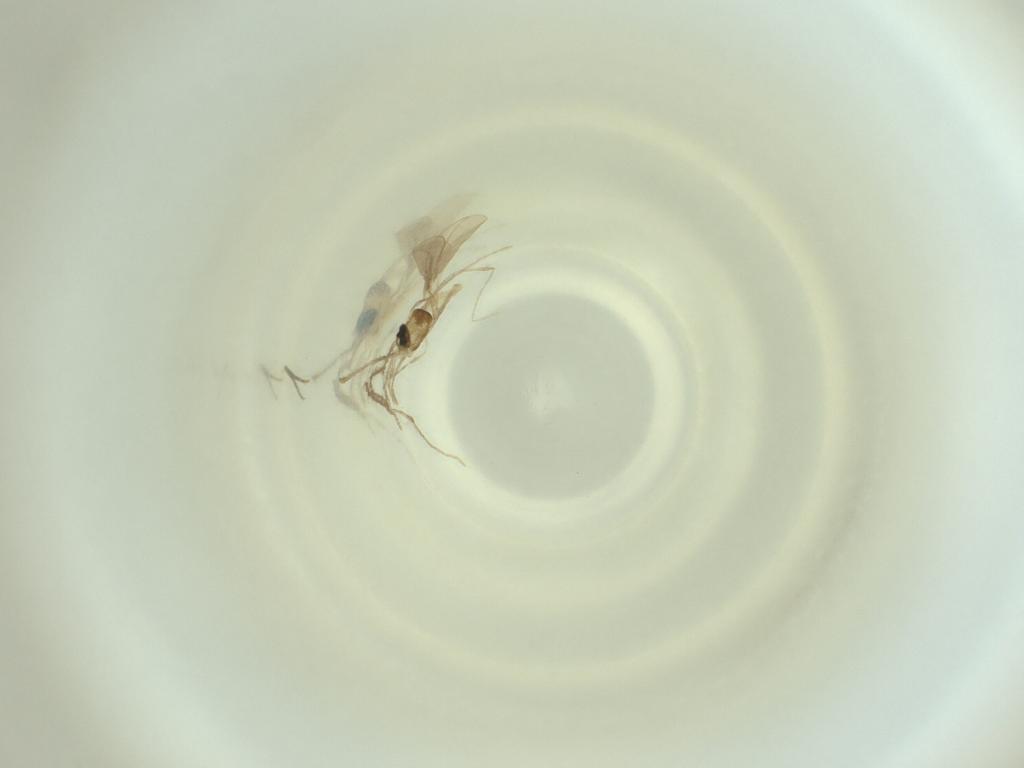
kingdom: Animalia
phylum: Arthropoda
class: Insecta
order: Diptera
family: Cecidomyiidae
